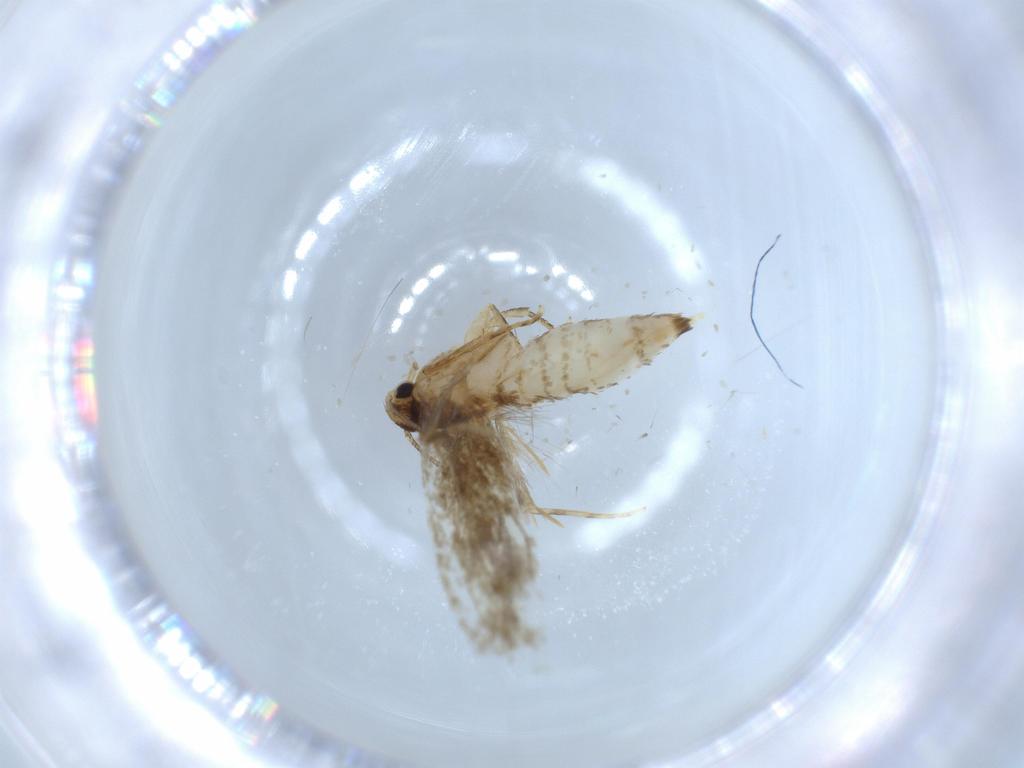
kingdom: Animalia
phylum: Arthropoda
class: Insecta
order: Lepidoptera
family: Tineidae
